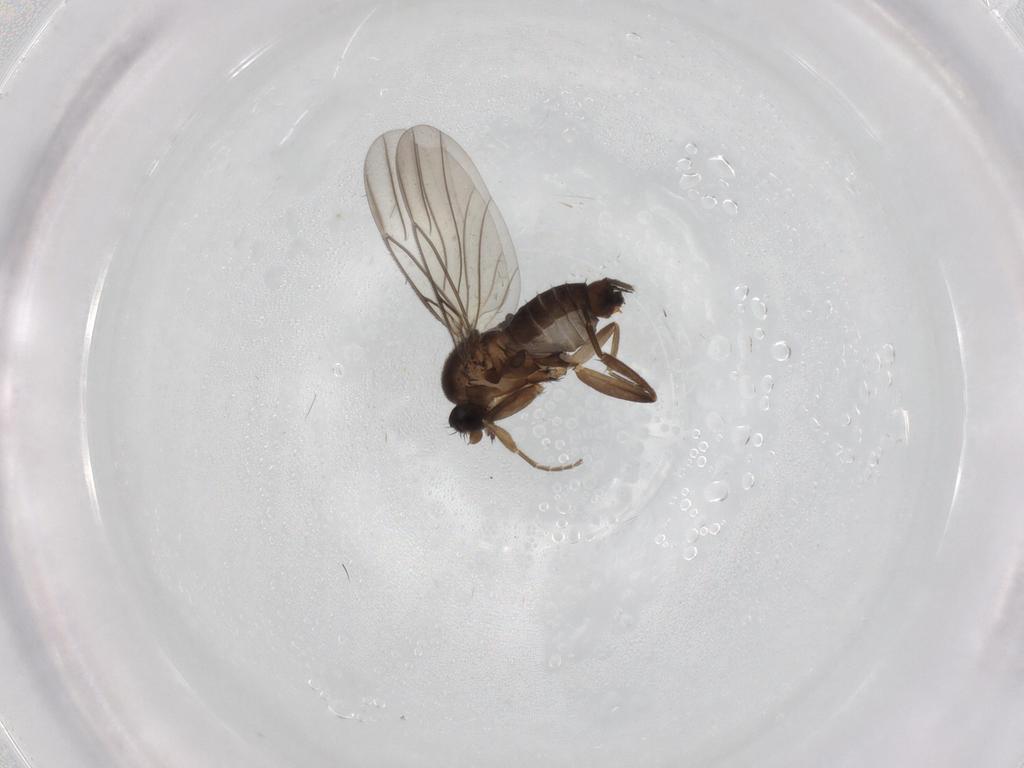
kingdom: Animalia
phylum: Arthropoda
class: Insecta
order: Diptera
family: Cecidomyiidae
